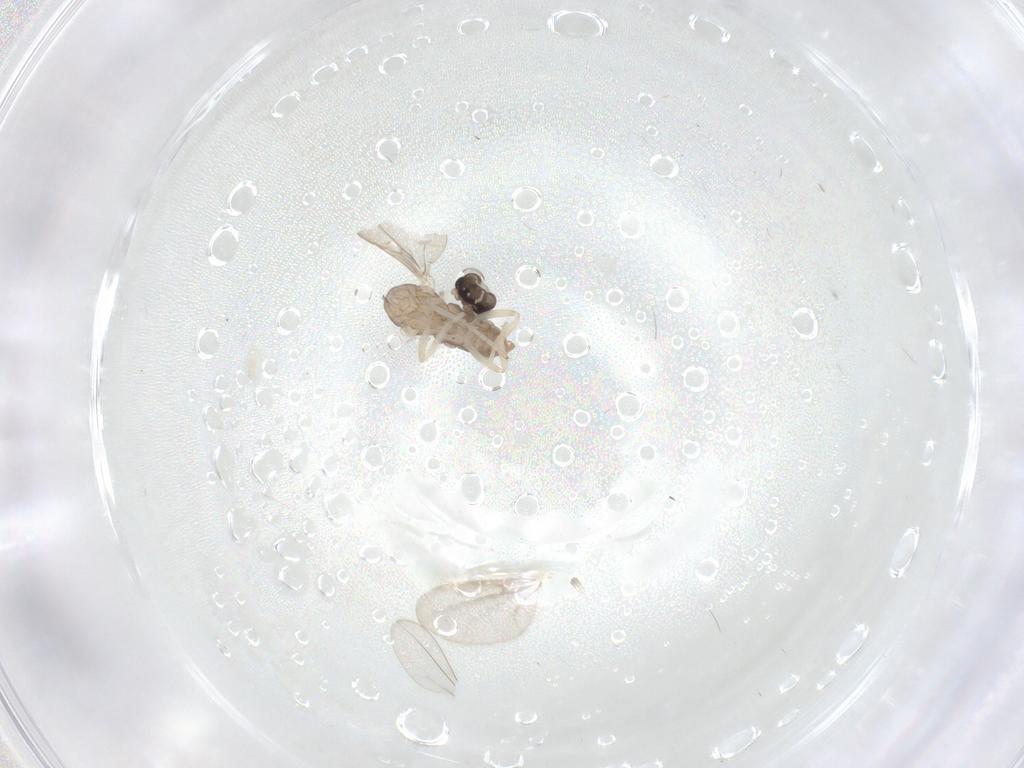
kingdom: Animalia
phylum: Arthropoda
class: Insecta
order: Diptera
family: Cecidomyiidae
